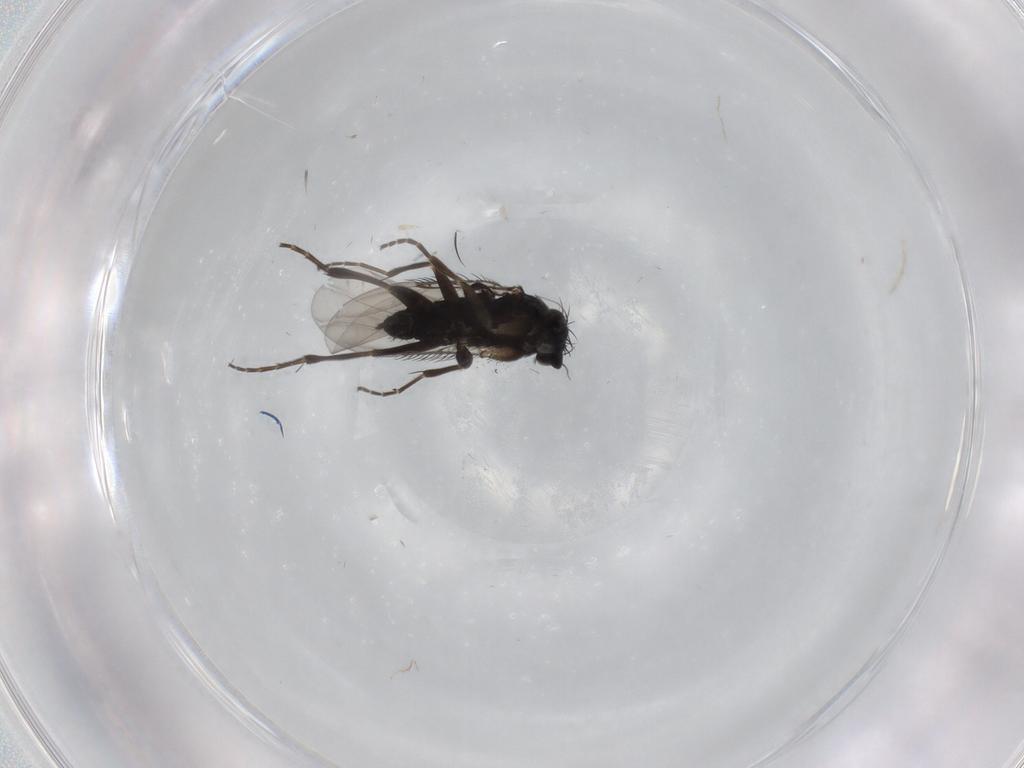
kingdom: Animalia
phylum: Arthropoda
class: Insecta
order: Diptera
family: Phoridae
